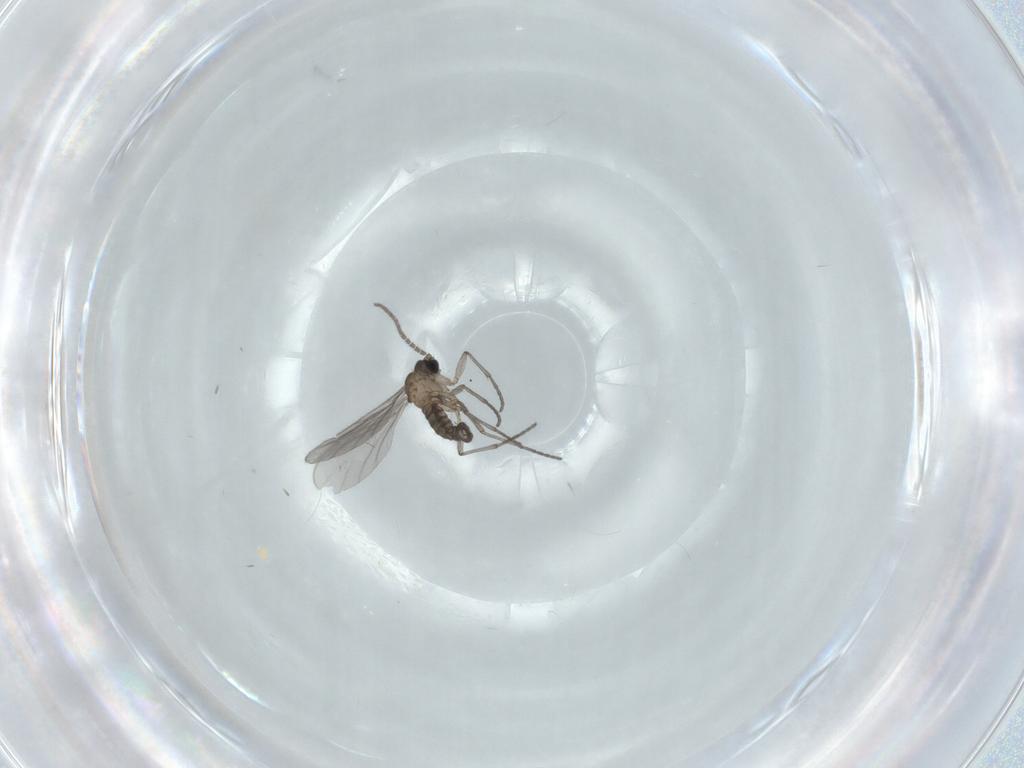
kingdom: Animalia
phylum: Arthropoda
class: Insecta
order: Diptera
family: Sciaridae
